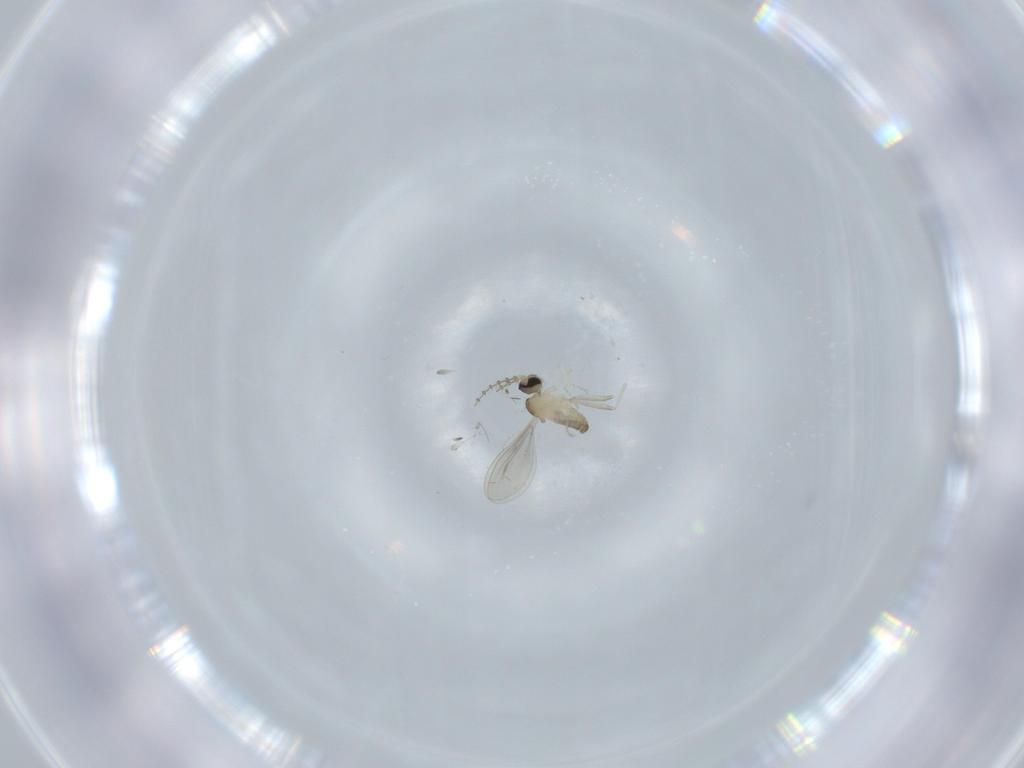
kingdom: Animalia
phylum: Arthropoda
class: Insecta
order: Diptera
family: Cecidomyiidae
